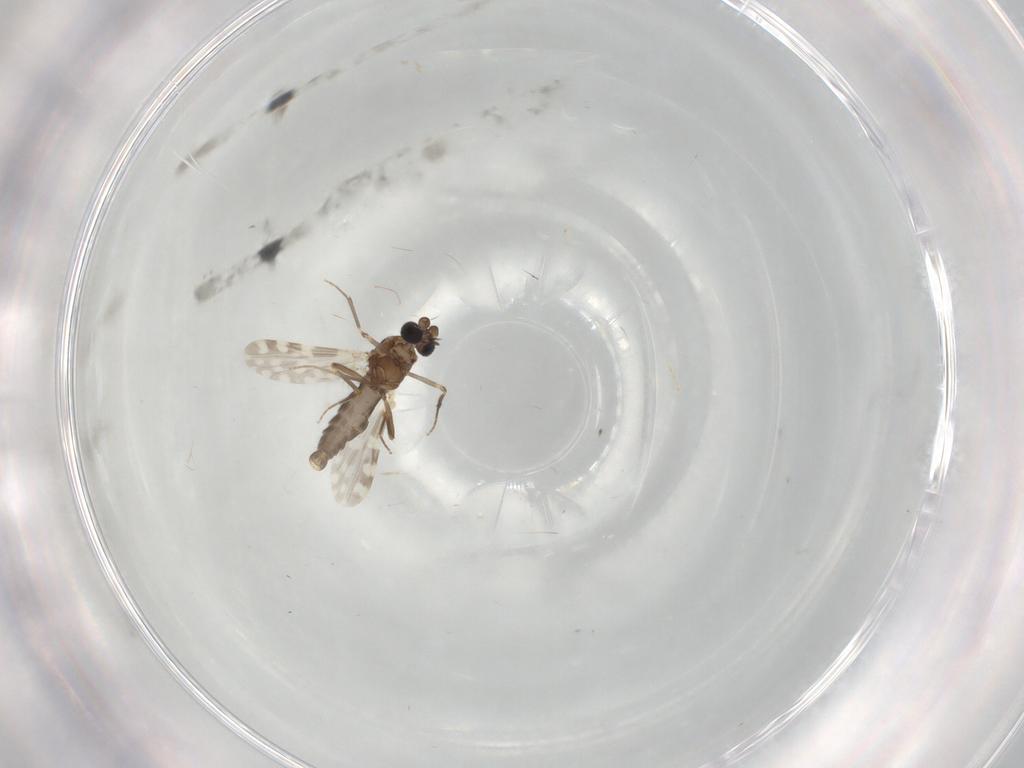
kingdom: Animalia
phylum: Arthropoda
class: Insecta
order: Diptera
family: Ceratopogonidae
